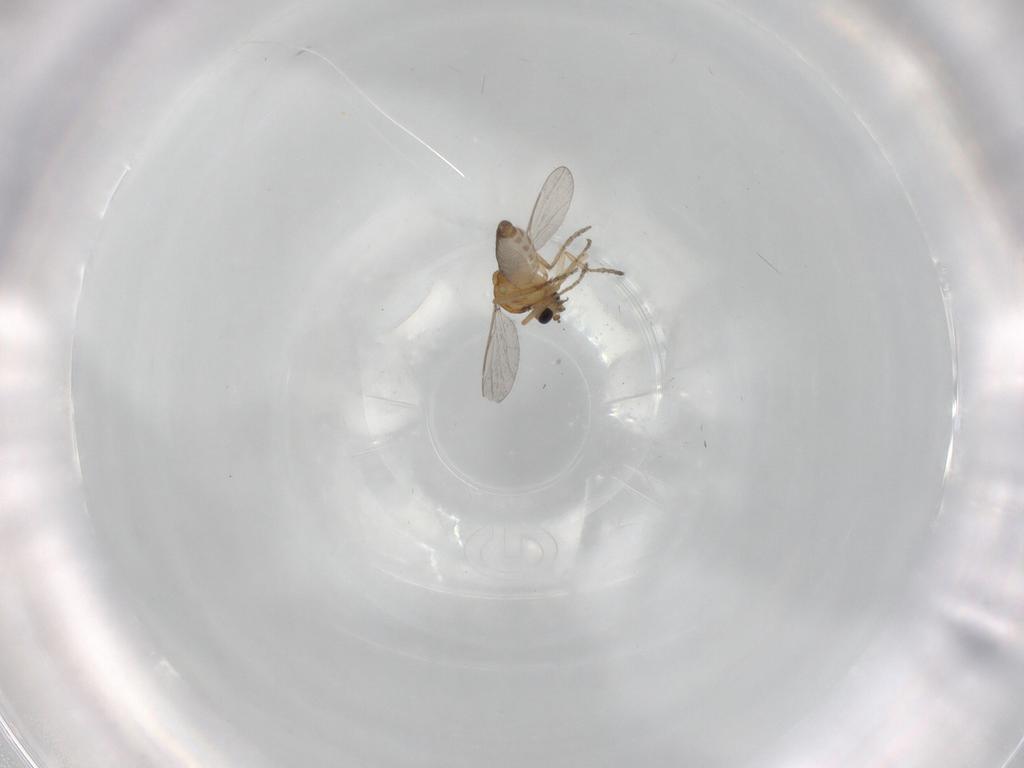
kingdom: Animalia
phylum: Arthropoda
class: Insecta
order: Diptera
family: Ceratopogonidae
